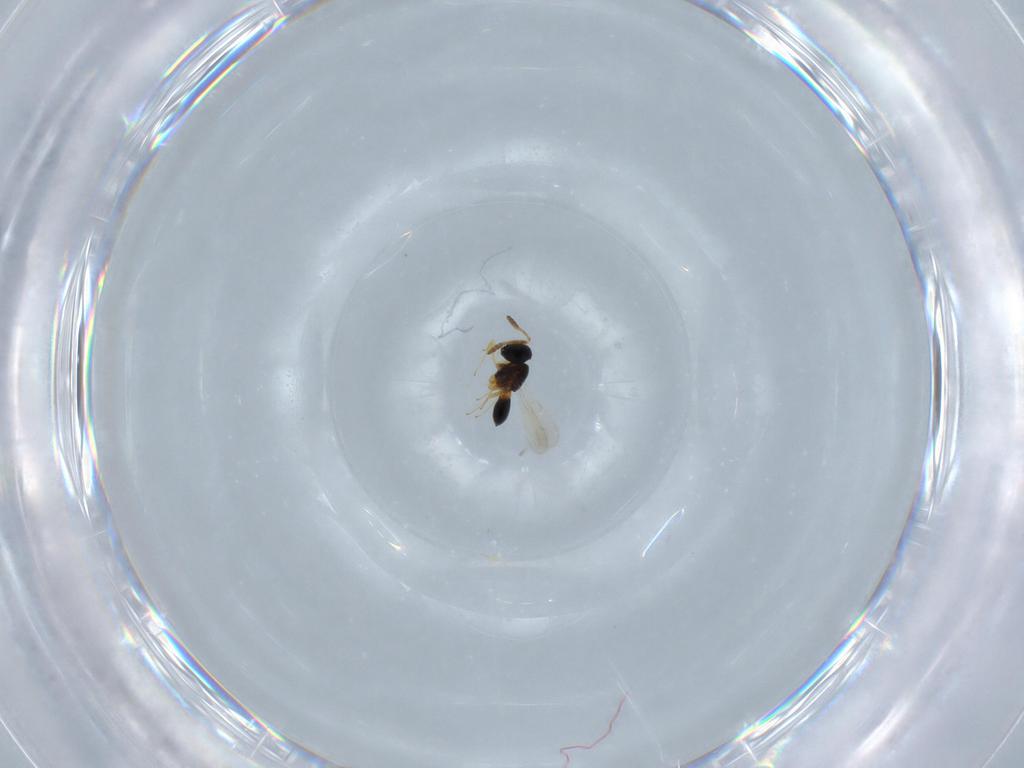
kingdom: Animalia
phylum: Arthropoda
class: Insecta
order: Hymenoptera
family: Scelionidae
